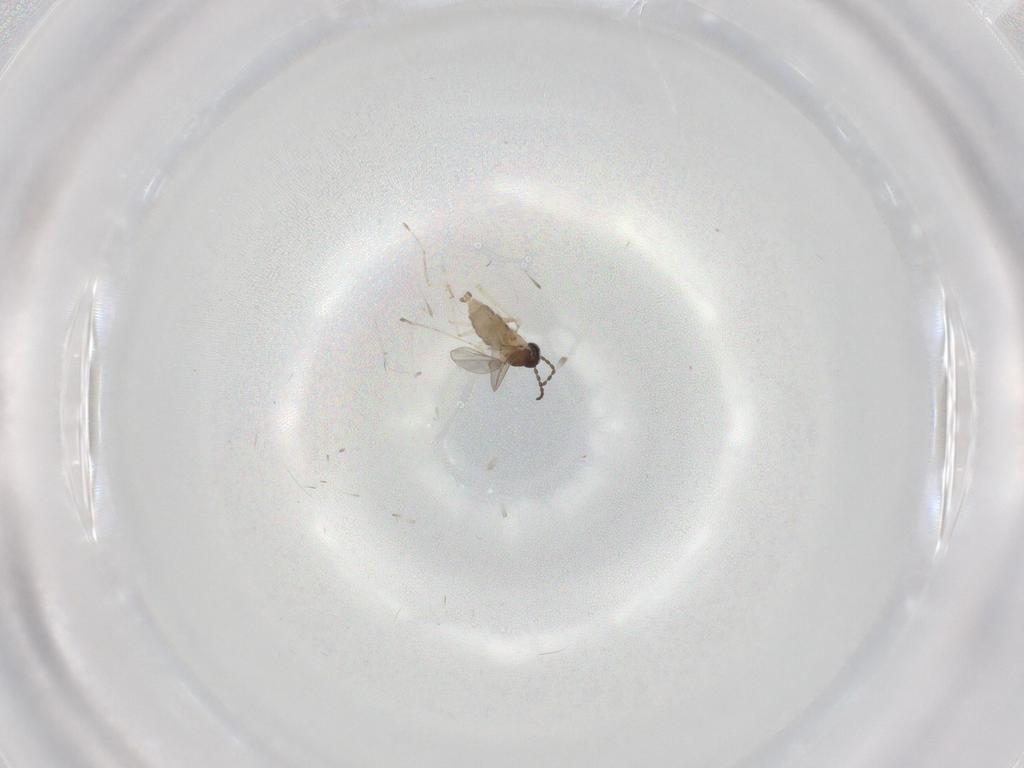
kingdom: Animalia
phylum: Arthropoda
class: Insecta
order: Diptera
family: Cecidomyiidae
